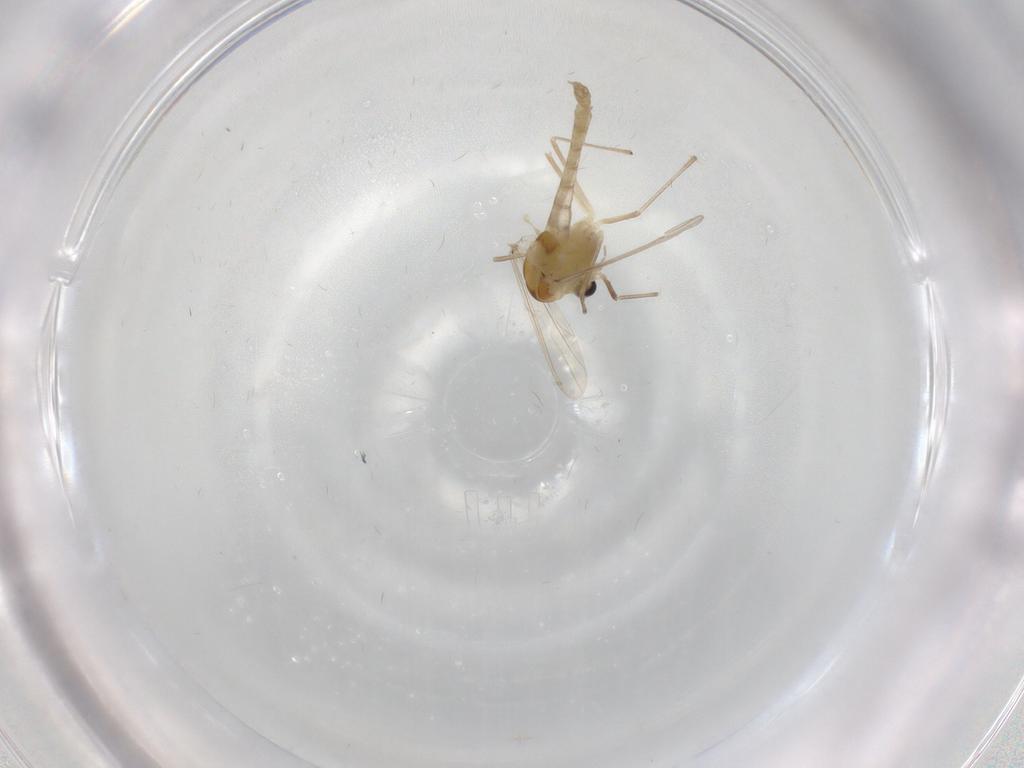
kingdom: Animalia
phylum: Arthropoda
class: Insecta
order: Diptera
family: Chironomidae
